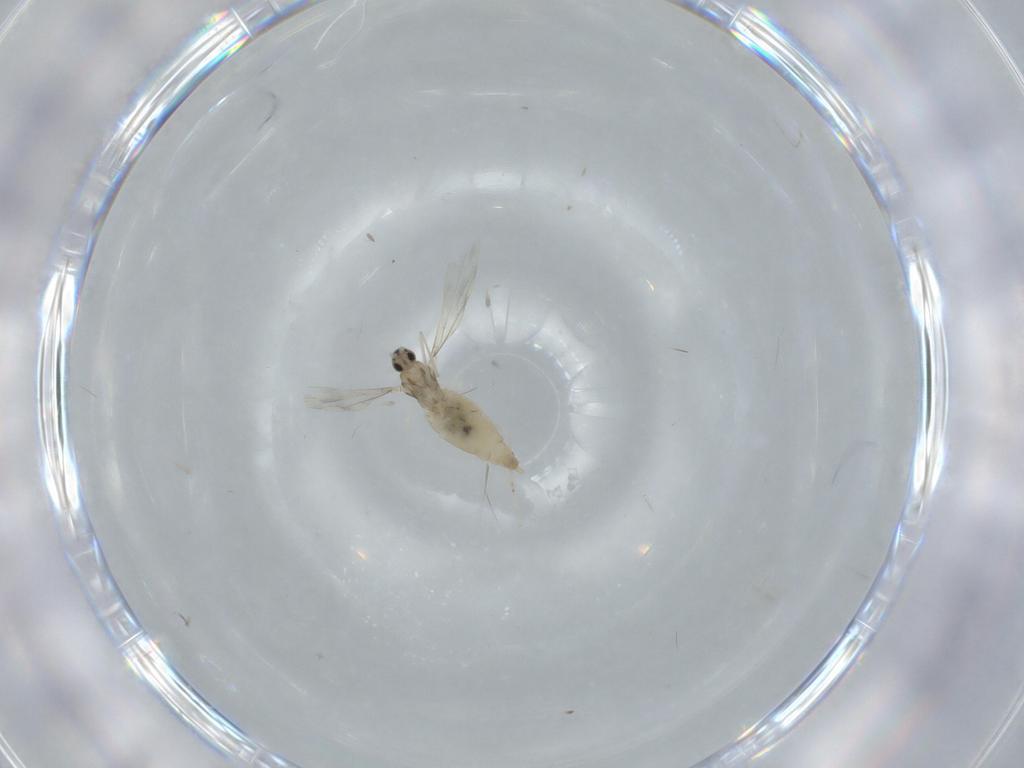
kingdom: Animalia
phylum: Arthropoda
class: Insecta
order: Diptera
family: Cecidomyiidae
